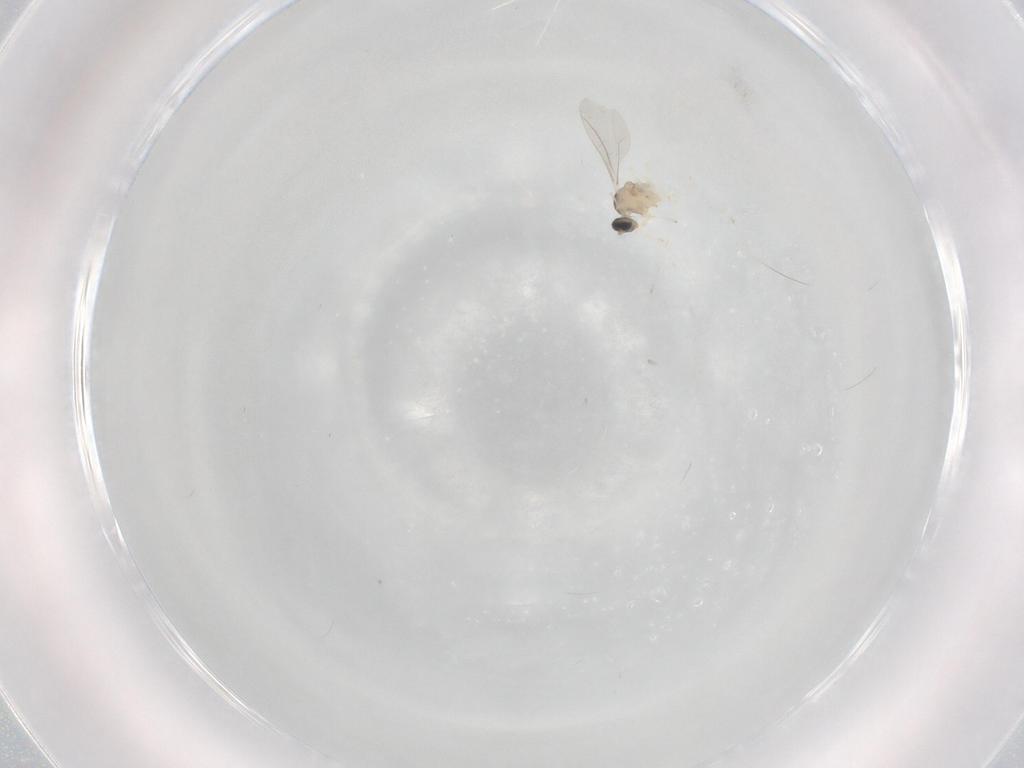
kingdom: Animalia
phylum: Arthropoda
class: Insecta
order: Diptera
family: Cecidomyiidae
